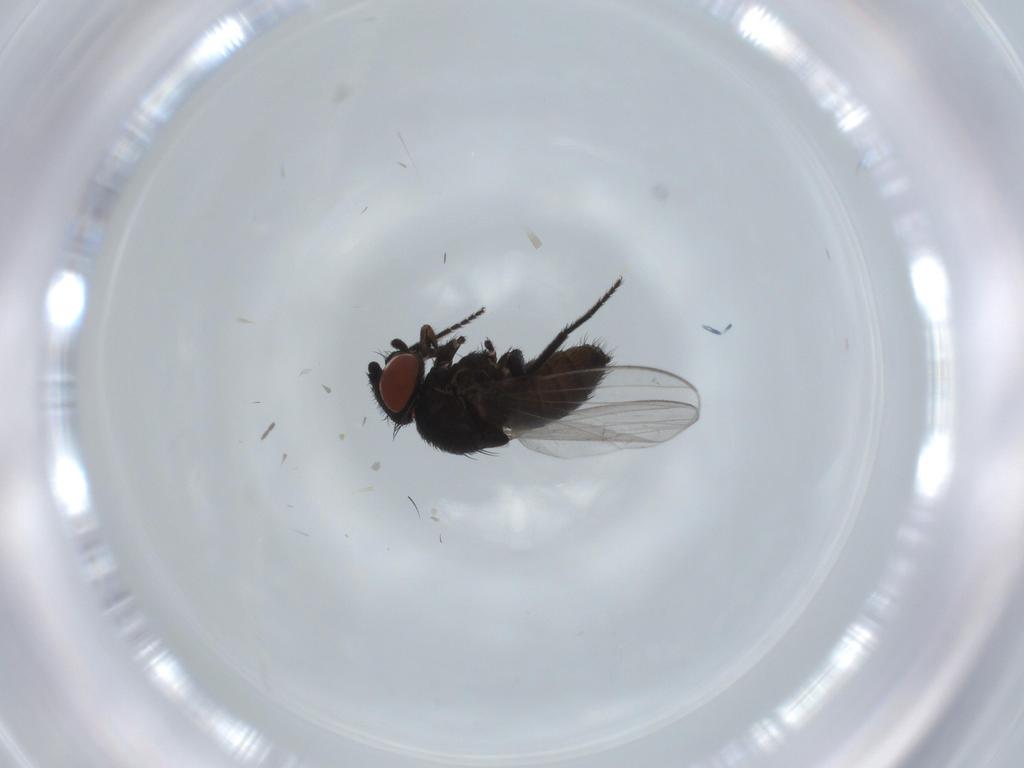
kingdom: Animalia
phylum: Arthropoda
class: Insecta
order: Diptera
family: Milichiidae
